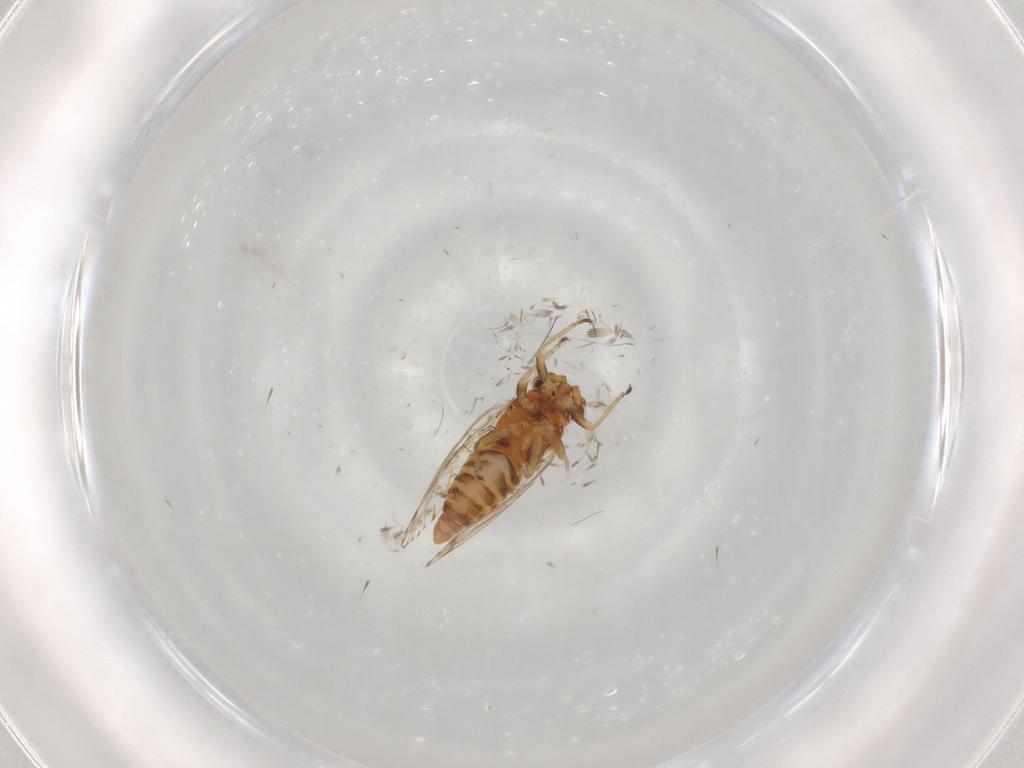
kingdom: Animalia
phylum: Arthropoda
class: Insecta
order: Hemiptera
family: Psyllidae
